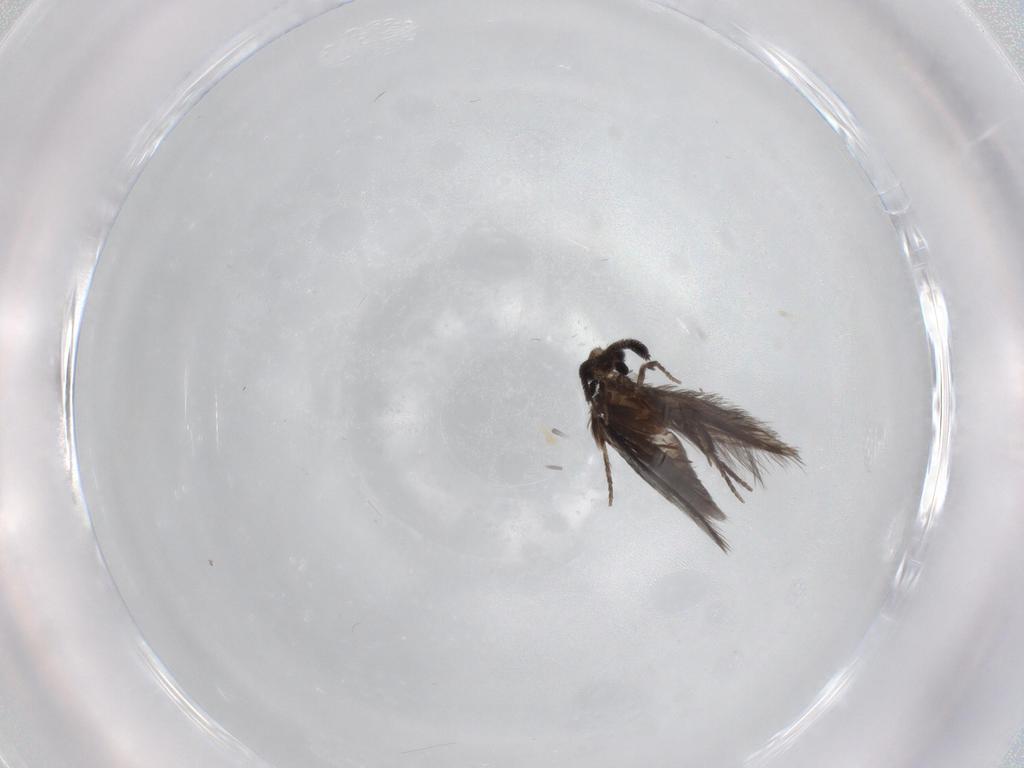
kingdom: Animalia
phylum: Arthropoda
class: Insecta
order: Trichoptera
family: Hydroptilidae
